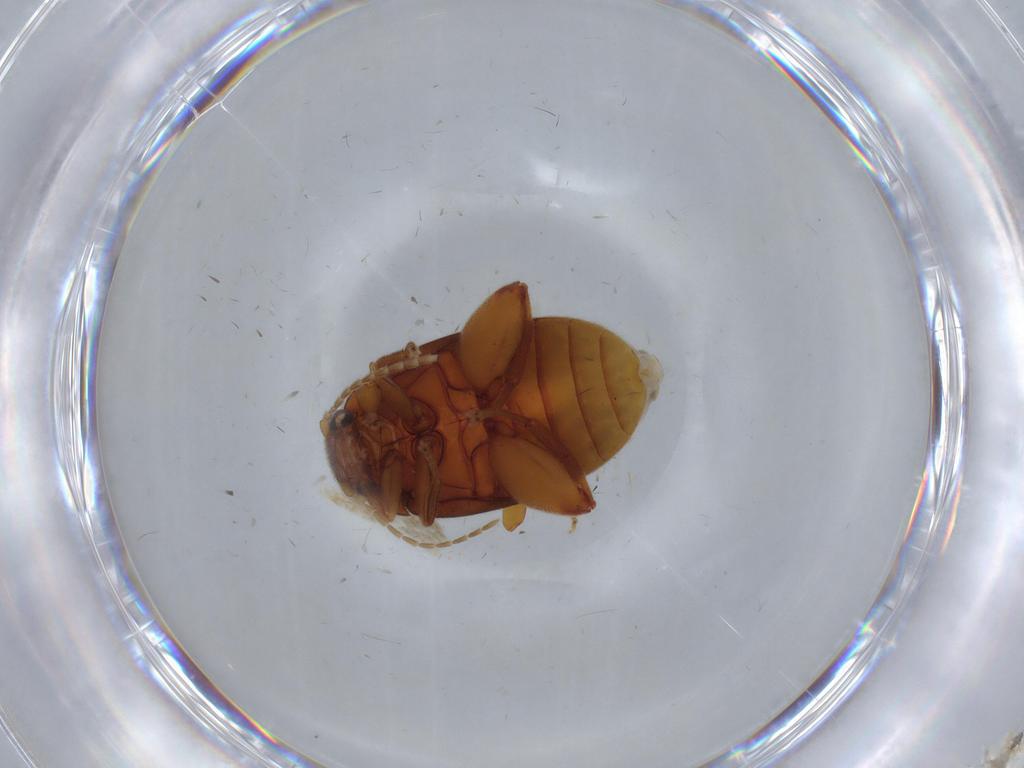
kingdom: Animalia
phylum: Arthropoda
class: Insecta
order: Coleoptera
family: Scirtidae
